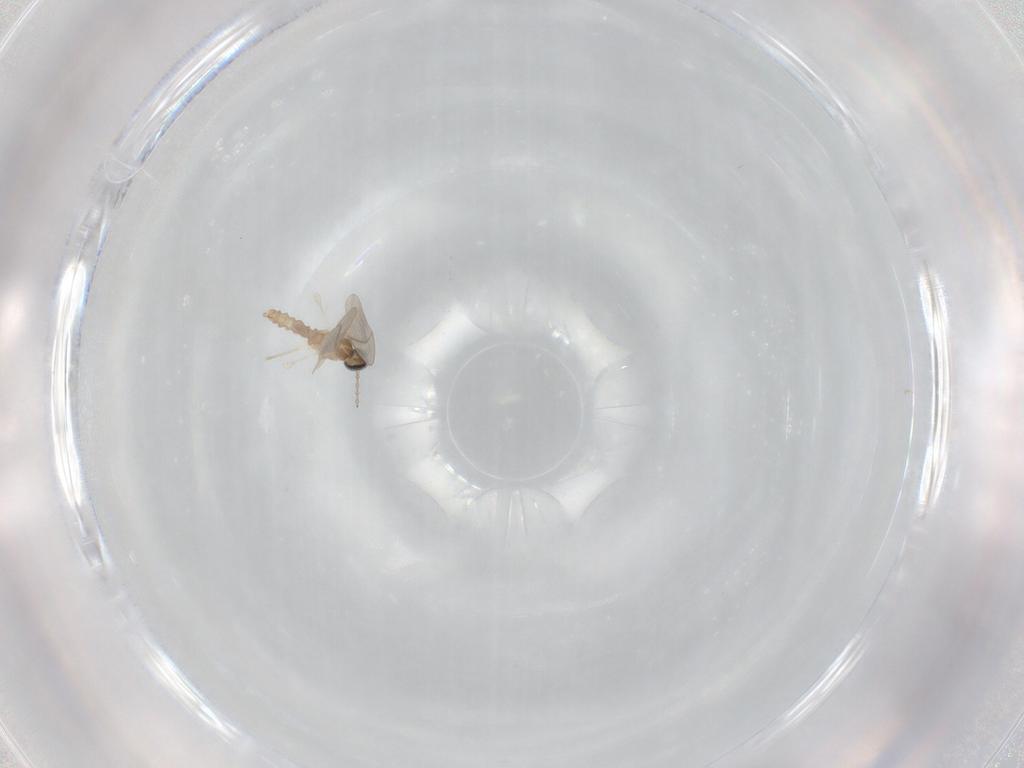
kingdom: Animalia
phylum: Arthropoda
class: Insecta
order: Diptera
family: Cecidomyiidae
